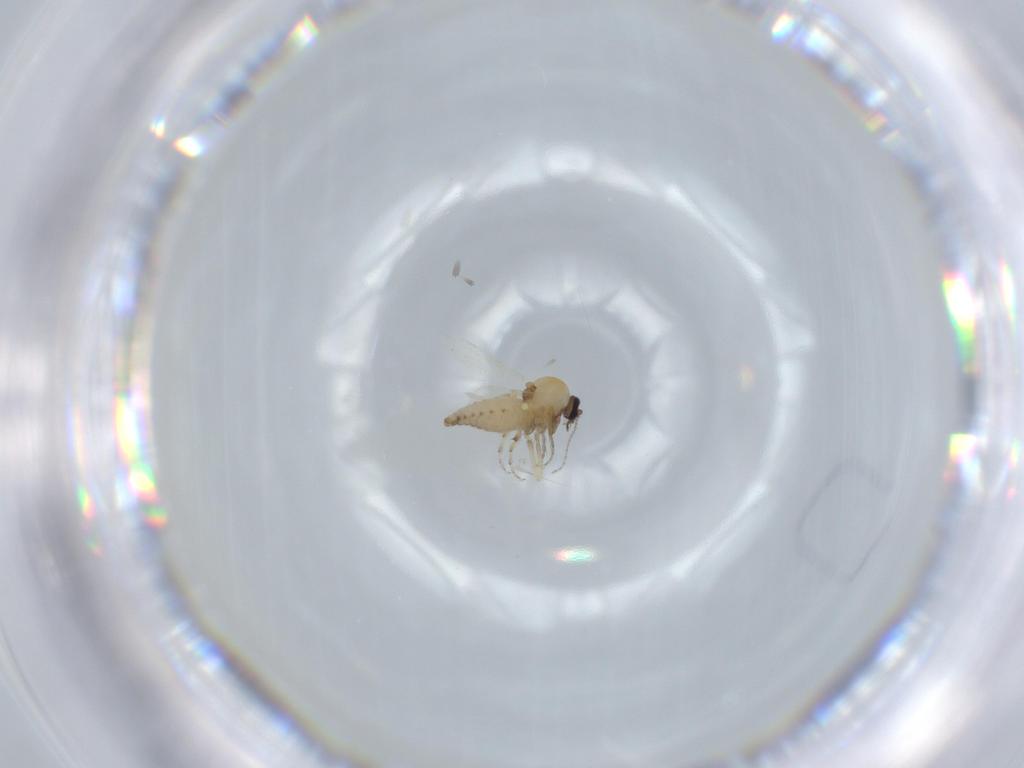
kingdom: Animalia
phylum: Arthropoda
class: Insecta
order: Diptera
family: Ceratopogonidae
